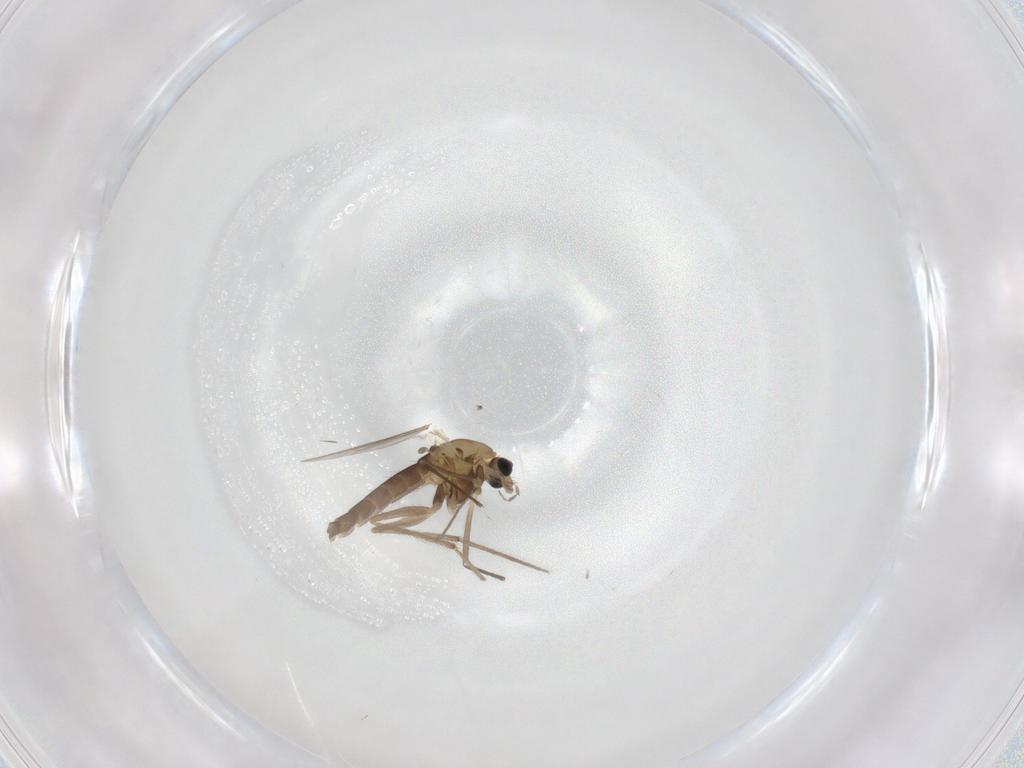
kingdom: Animalia
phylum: Arthropoda
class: Insecta
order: Diptera
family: Chironomidae
